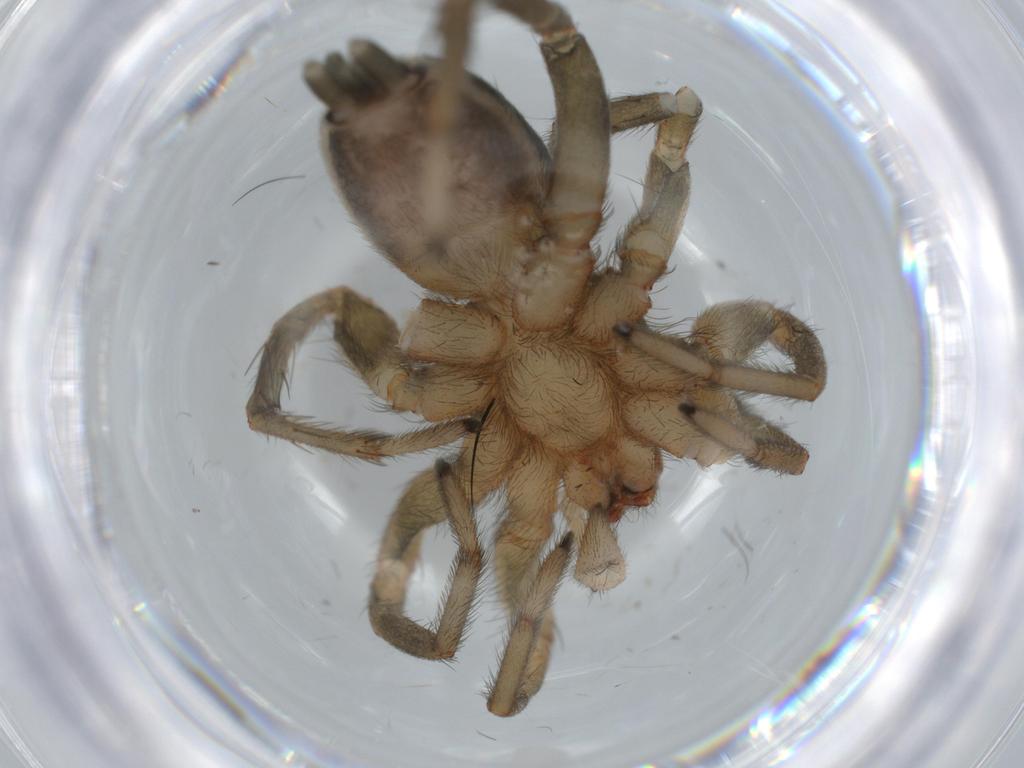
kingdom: Animalia
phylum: Arthropoda
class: Arachnida
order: Araneae
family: Gnaphosidae
